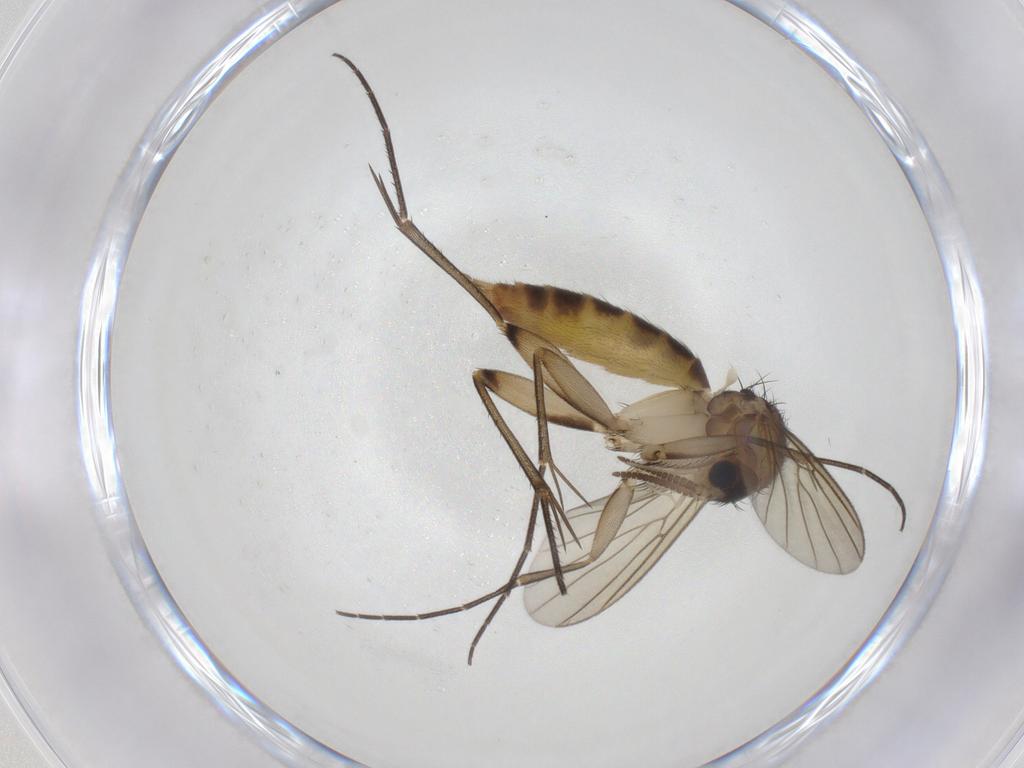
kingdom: Animalia
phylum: Arthropoda
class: Insecta
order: Diptera
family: Mycetophilidae
